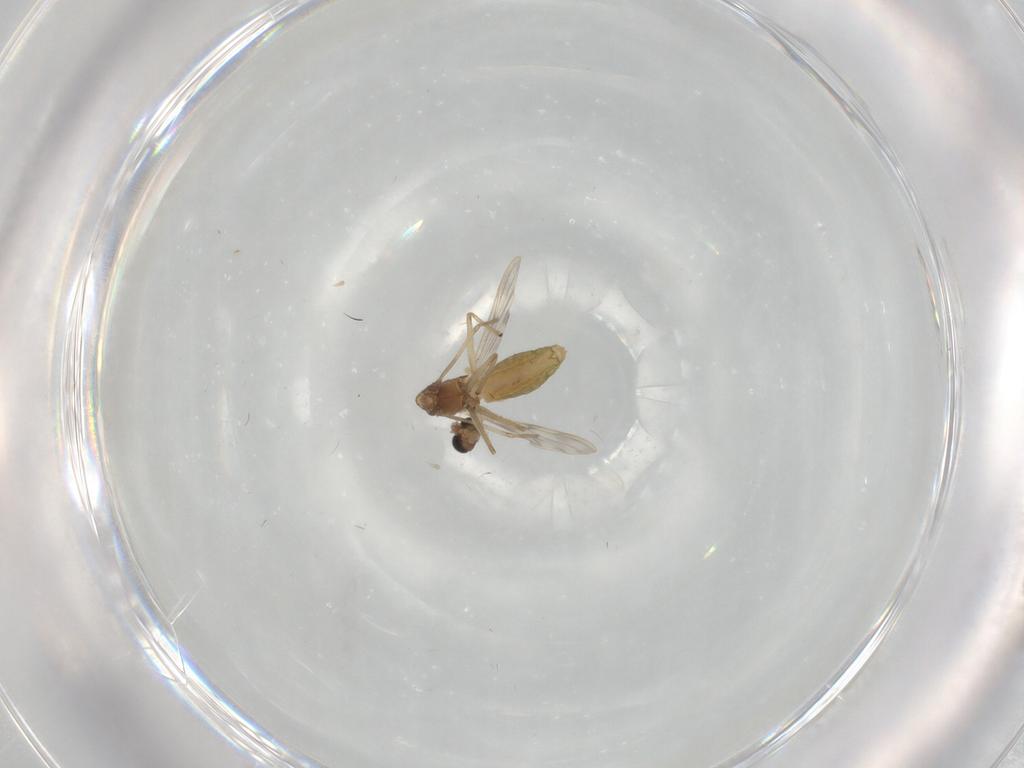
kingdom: Animalia
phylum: Arthropoda
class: Insecta
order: Diptera
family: Chironomidae
